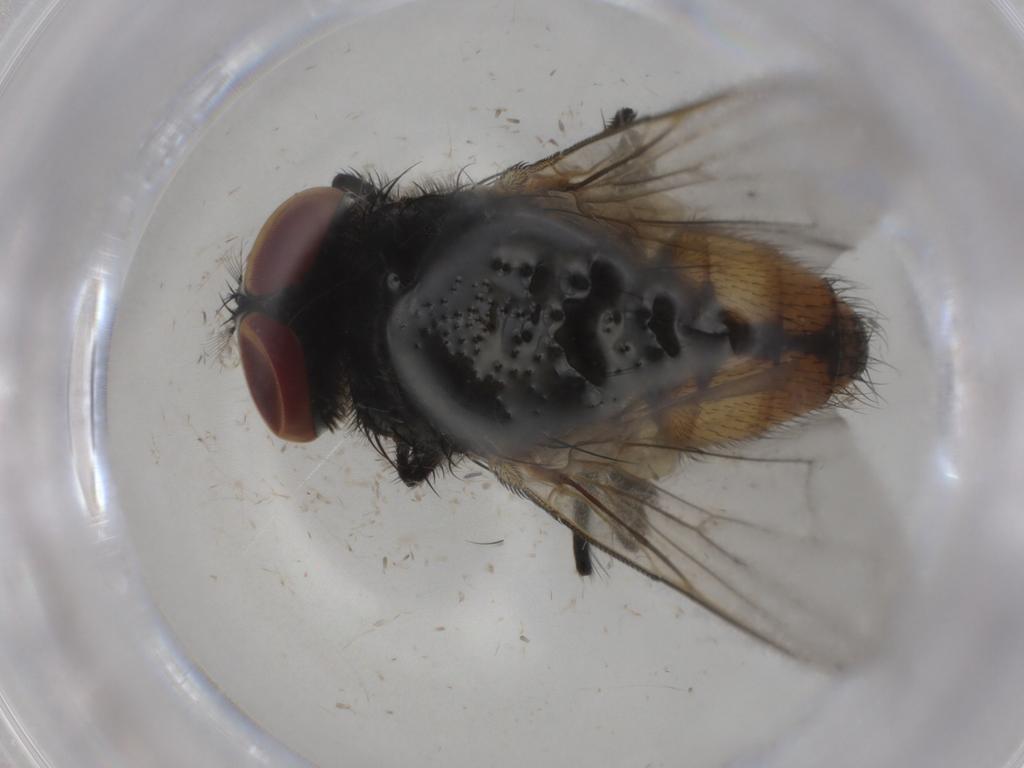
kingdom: Animalia
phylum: Arthropoda
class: Insecta
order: Diptera
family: Muscidae
